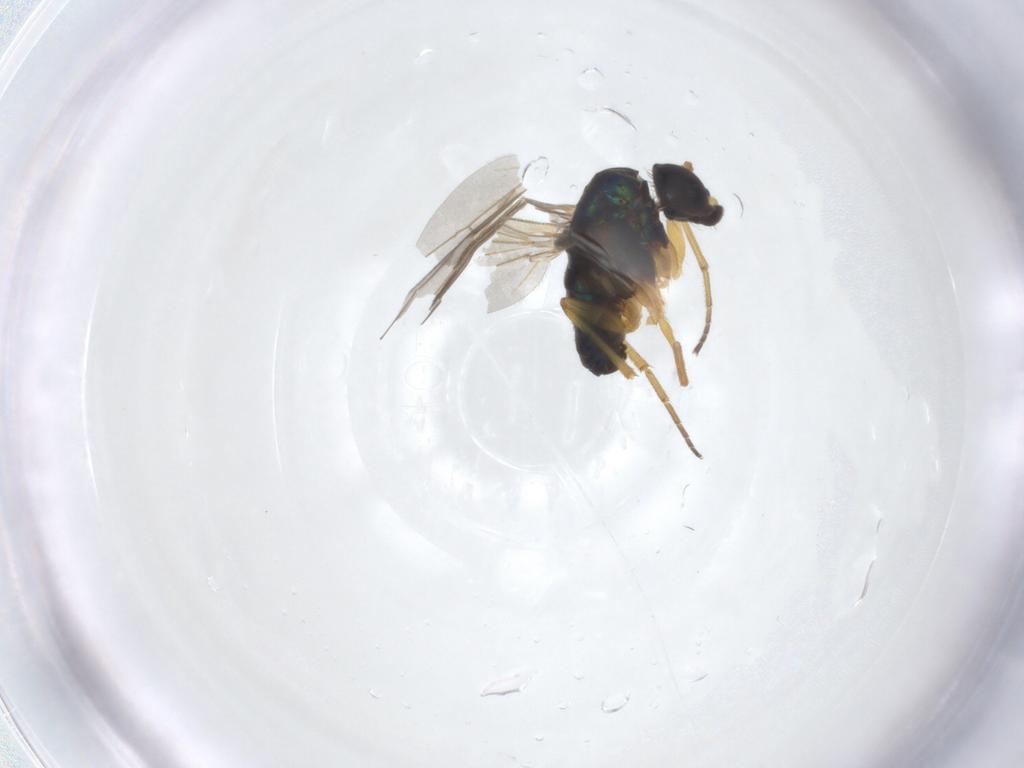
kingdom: Animalia
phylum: Arthropoda
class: Insecta
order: Diptera
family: Dolichopodidae
